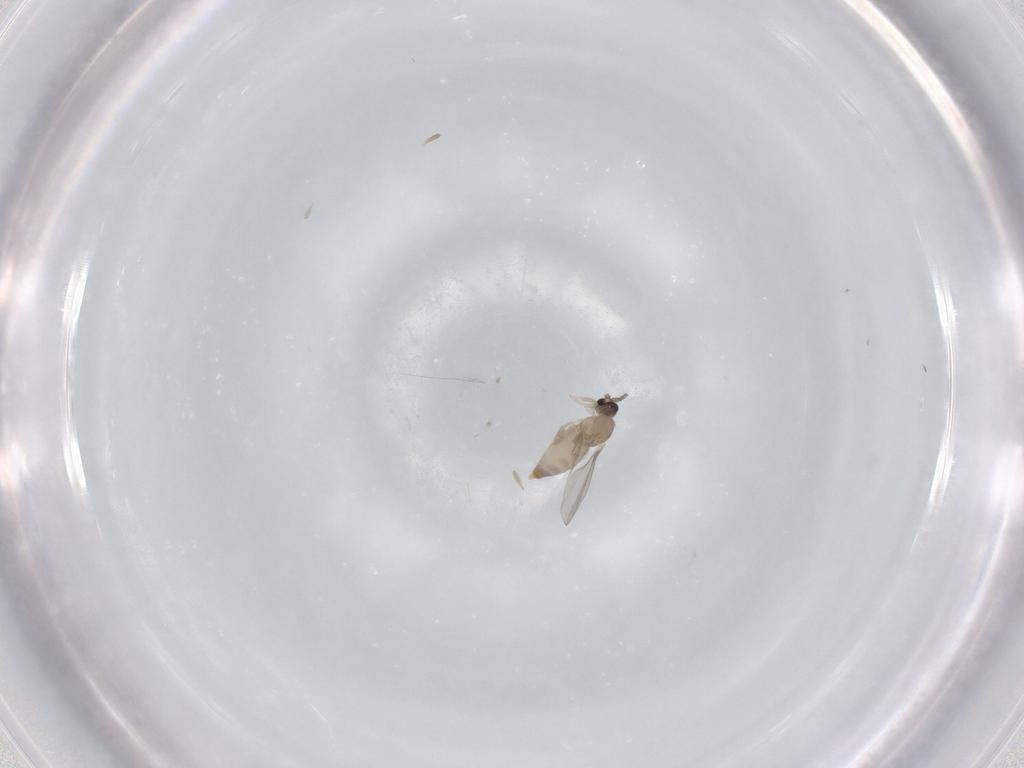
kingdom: Animalia
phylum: Arthropoda
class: Insecta
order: Diptera
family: Cecidomyiidae
